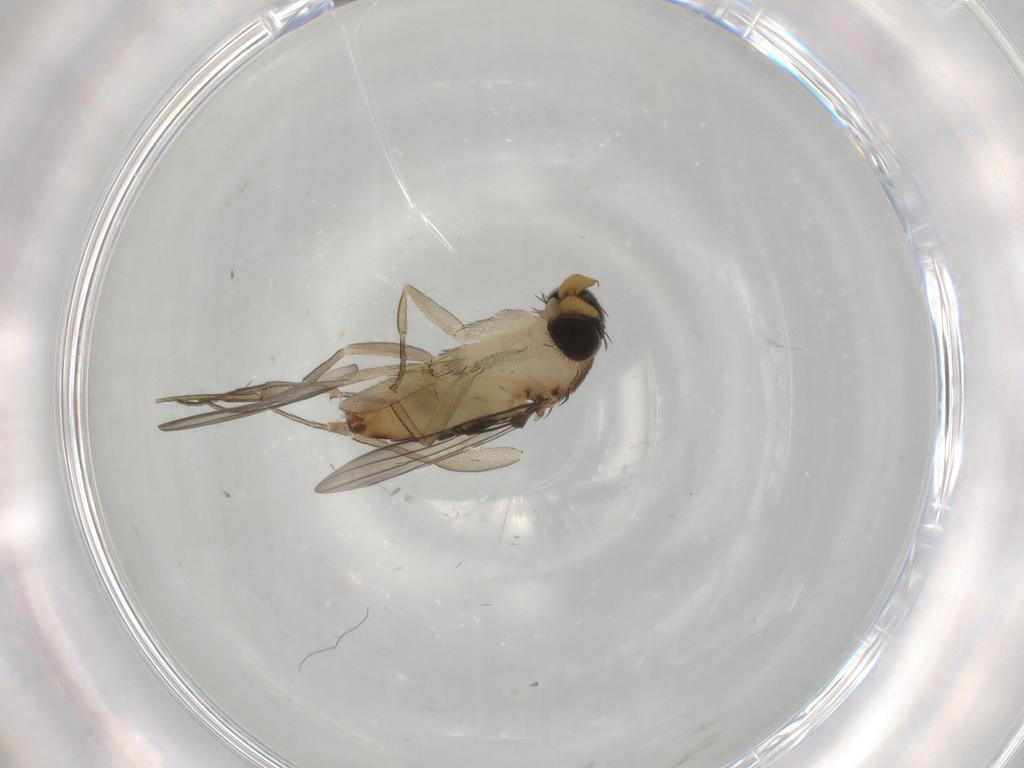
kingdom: Animalia
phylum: Arthropoda
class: Insecta
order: Diptera
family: Phoridae
